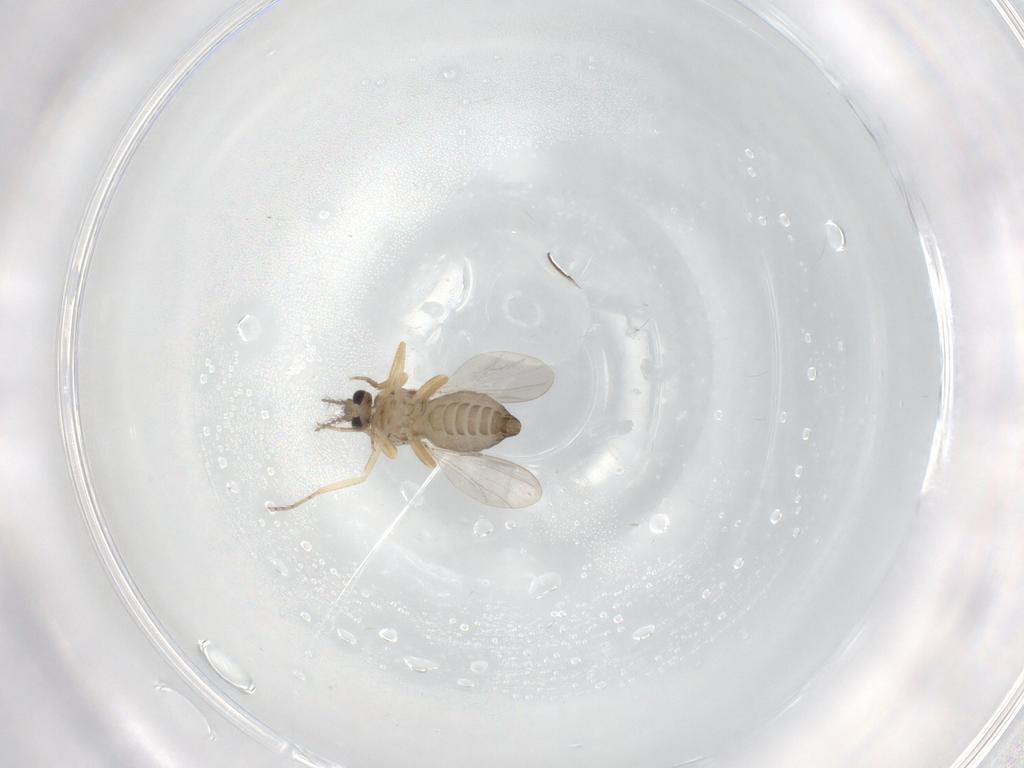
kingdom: Animalia
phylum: Arthropoda
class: Insecta
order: Diptera
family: Ceratopogonidae
